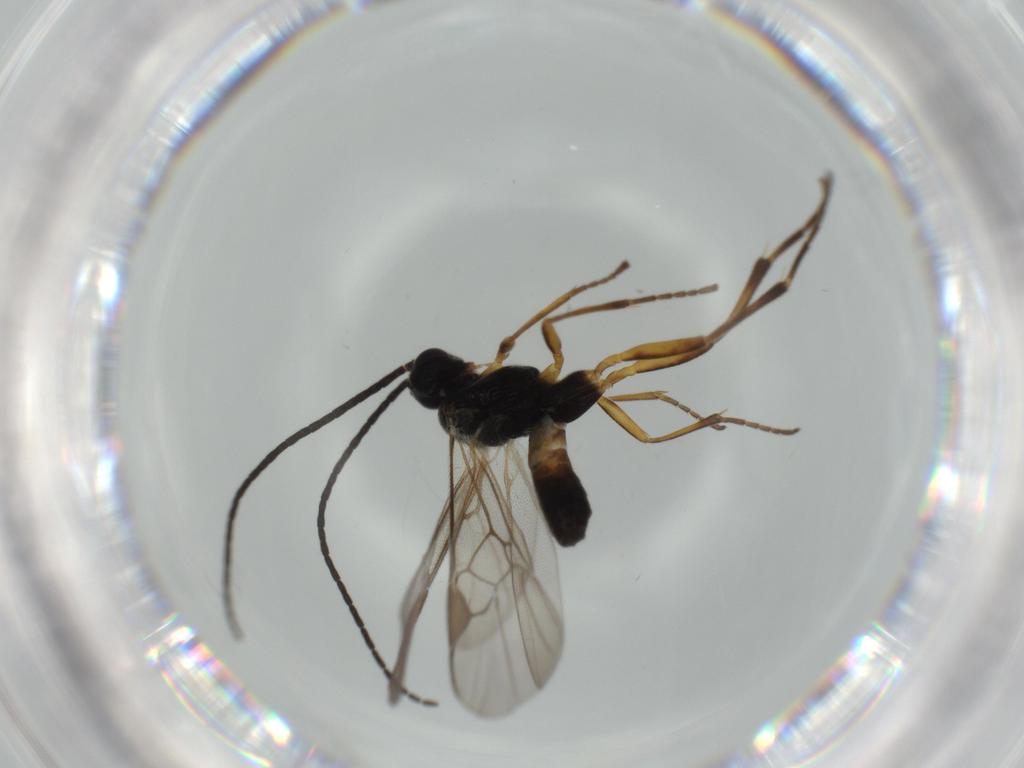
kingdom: Animalia
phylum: Arthropoda
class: Insecta
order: Hymenoptera
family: Braconidae
